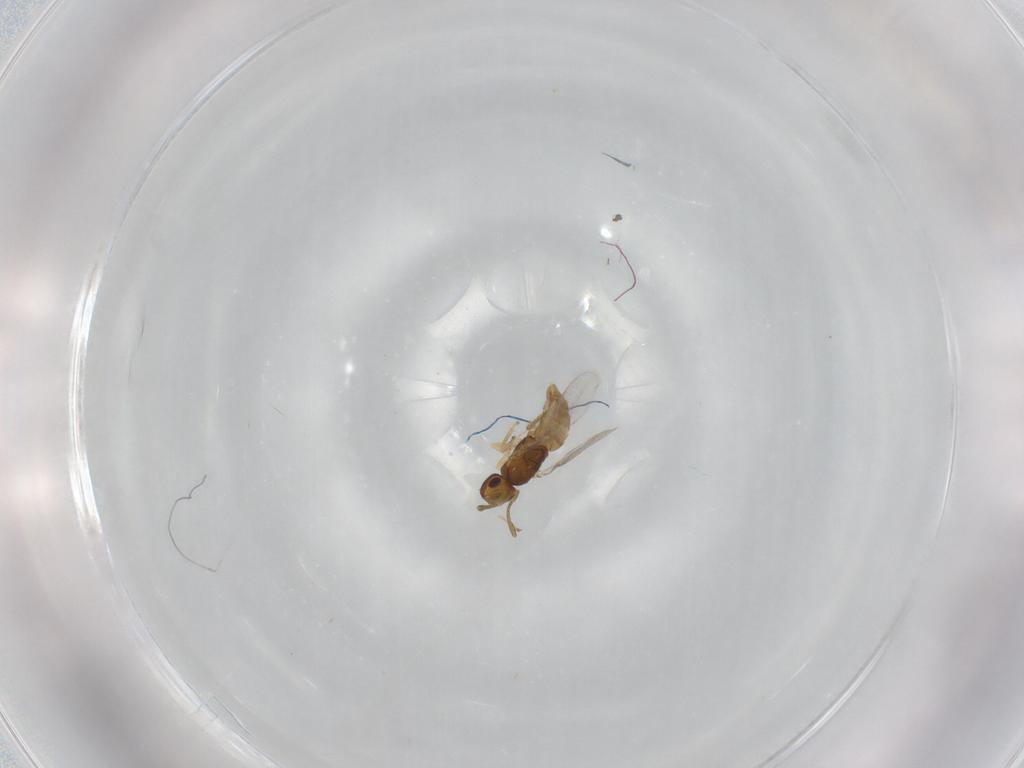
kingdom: Animalia
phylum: Arthropoda
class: Insecta
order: Hymenoptera
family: Encyrtidae
